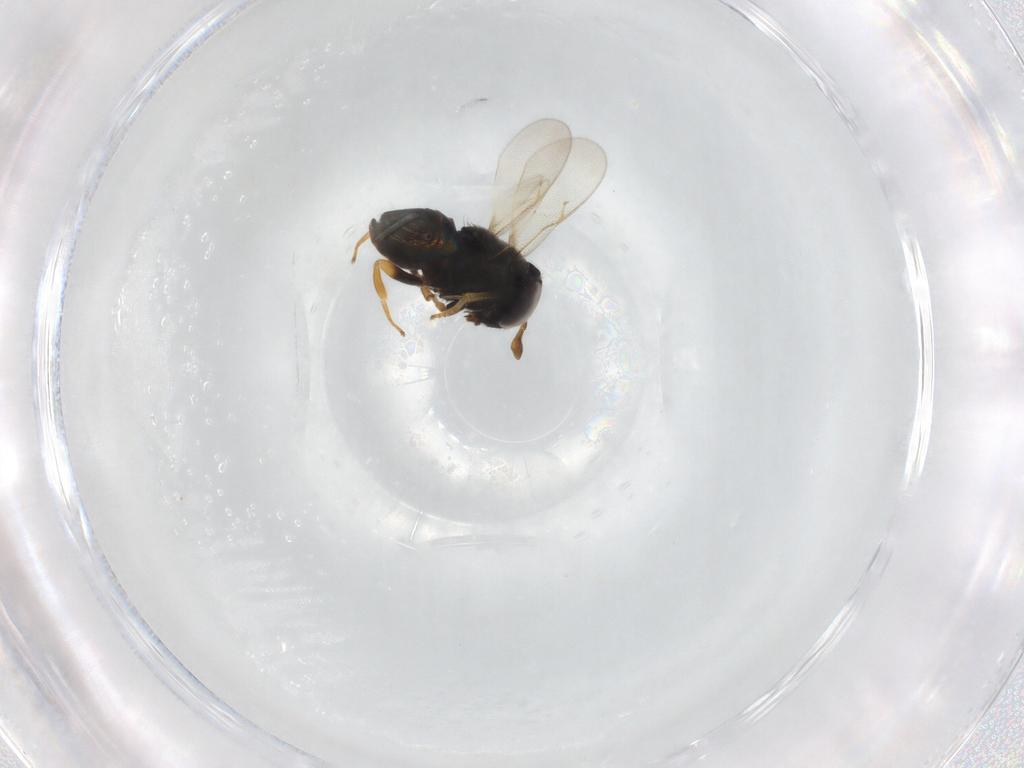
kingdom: Animalia
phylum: Arthropoda
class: Insecta
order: Hymenoptera
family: Encyrtidae
